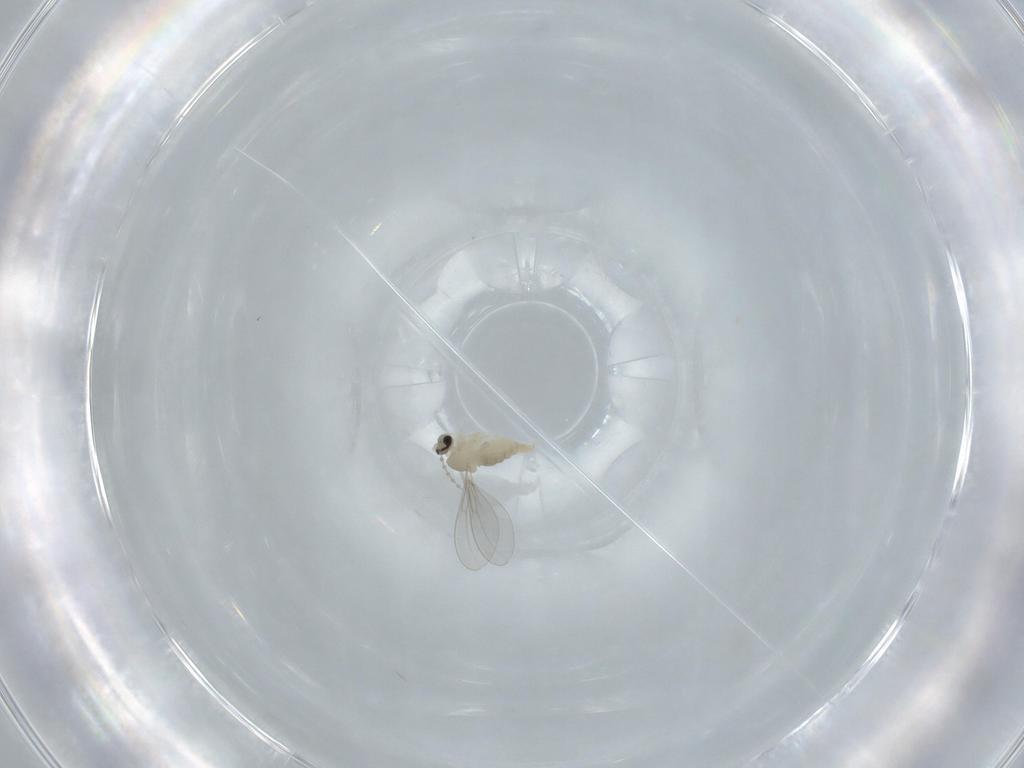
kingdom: Animalia
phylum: Arthropoda
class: Insecta
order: Diptera
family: Cecidomyiidae
